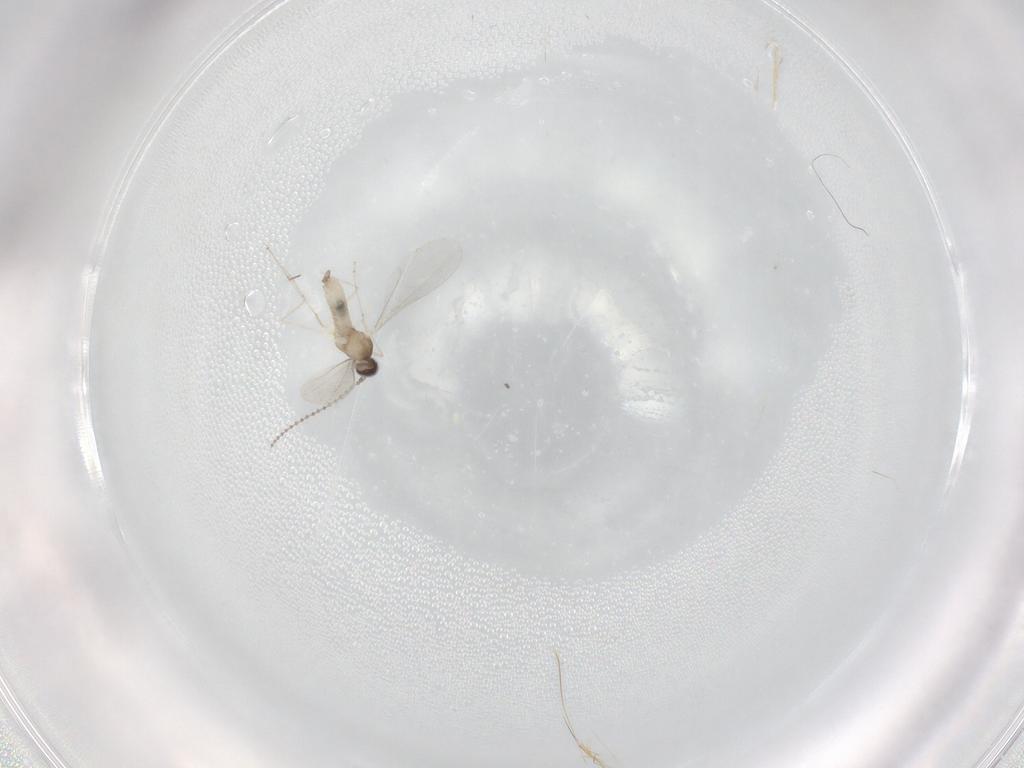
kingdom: Animalia
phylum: Arthropoda
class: Insecta
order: Diptera
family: Cecidomyiidae
